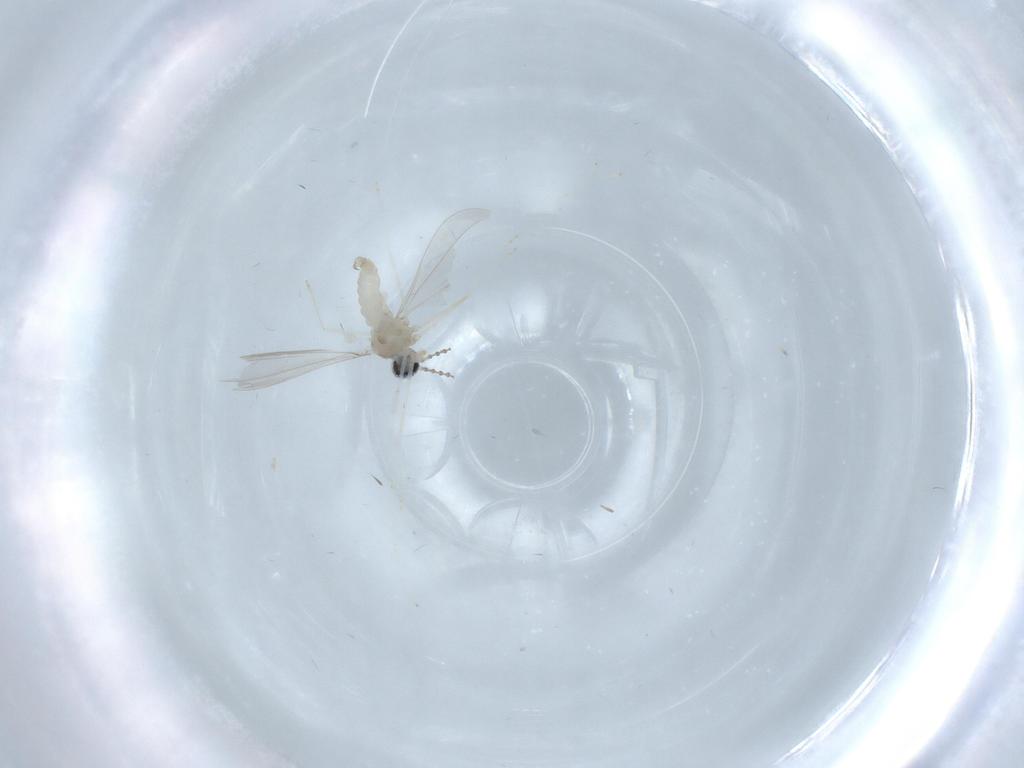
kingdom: Animalia
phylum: Arthropoda
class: Insecta
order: Diptera
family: Cecidomyiidae
